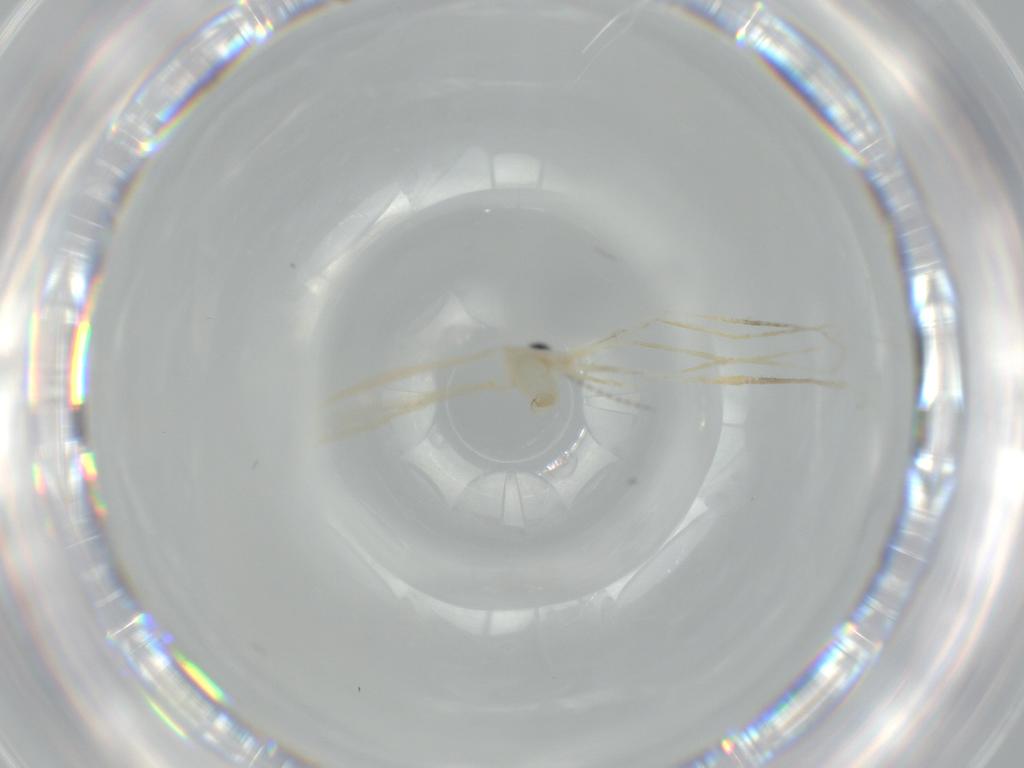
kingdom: Animalia
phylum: Arthropoda
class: Insecta
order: Diptera
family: Cecidomyiidae
